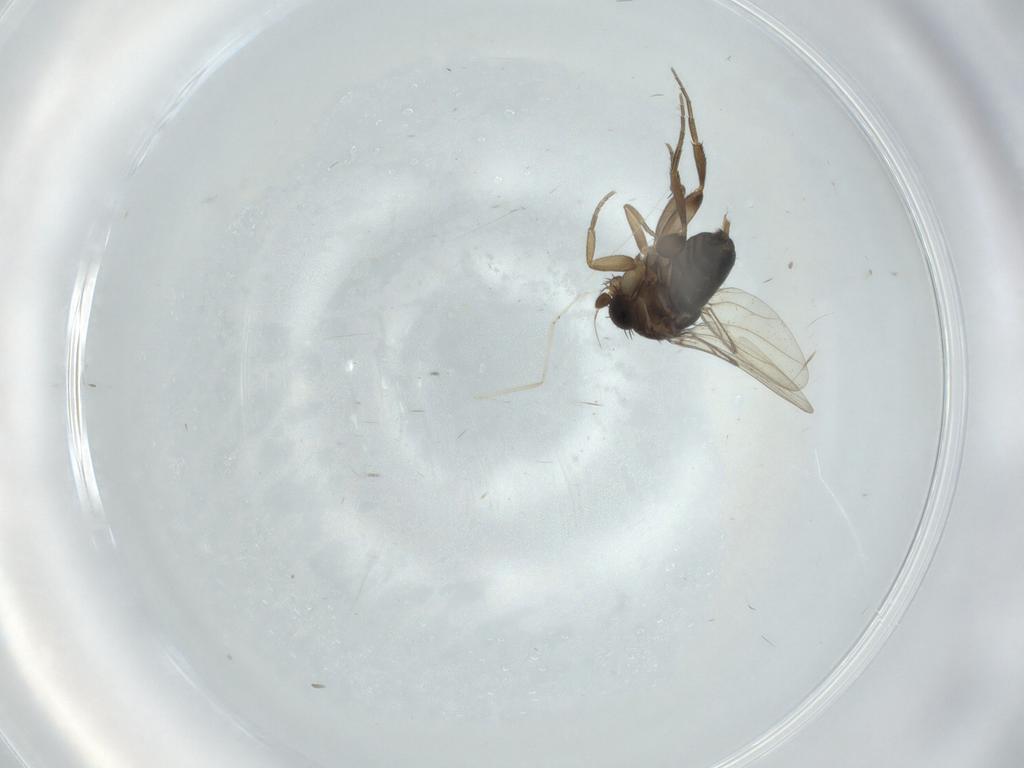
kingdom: Animalia
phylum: Arthropoda
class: Insecta
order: Diptera
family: Cecidomyiidae
